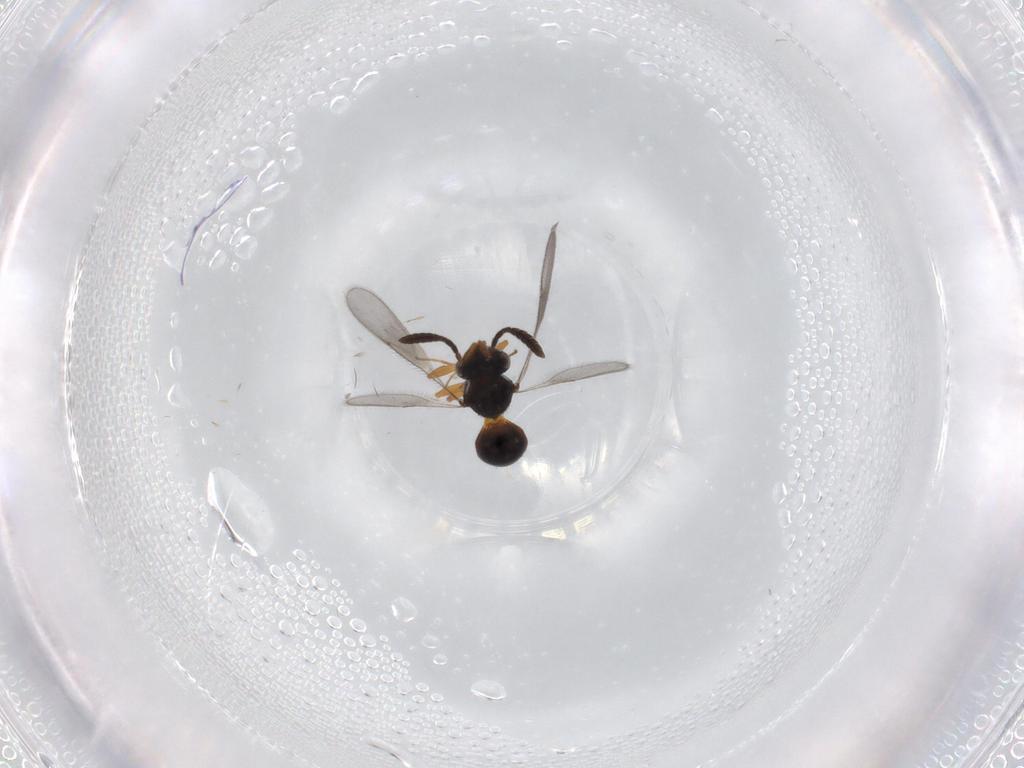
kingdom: Animalia
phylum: Arthropoda
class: Insecta
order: Hymenoptera
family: Scelionidae
